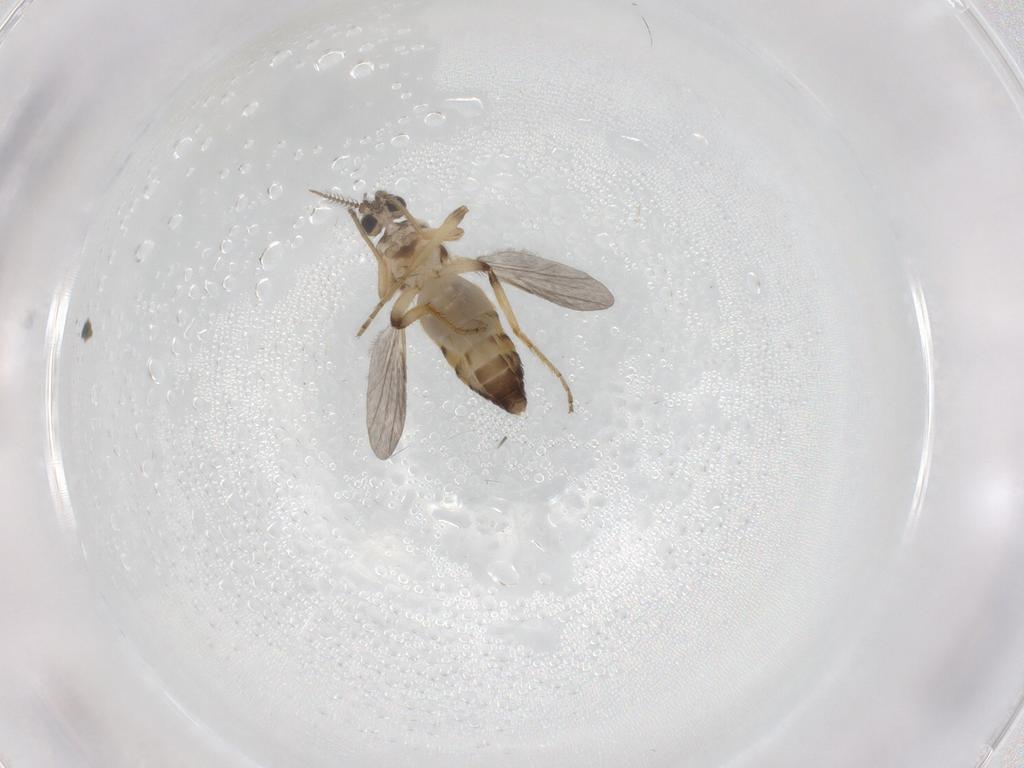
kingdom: Animalia
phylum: Arthropoda
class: Insecta
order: Diptera
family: Ceratopogonidae
